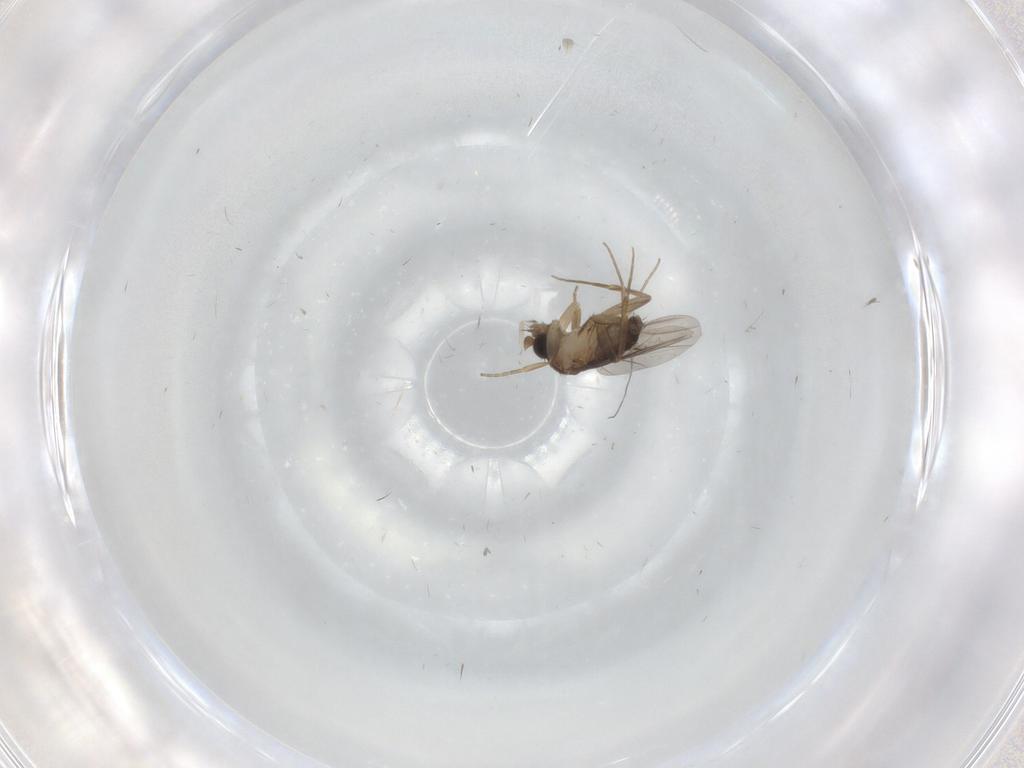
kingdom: Animalia
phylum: Arthropoda
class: Insecta
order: Diptera
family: Phoridae
